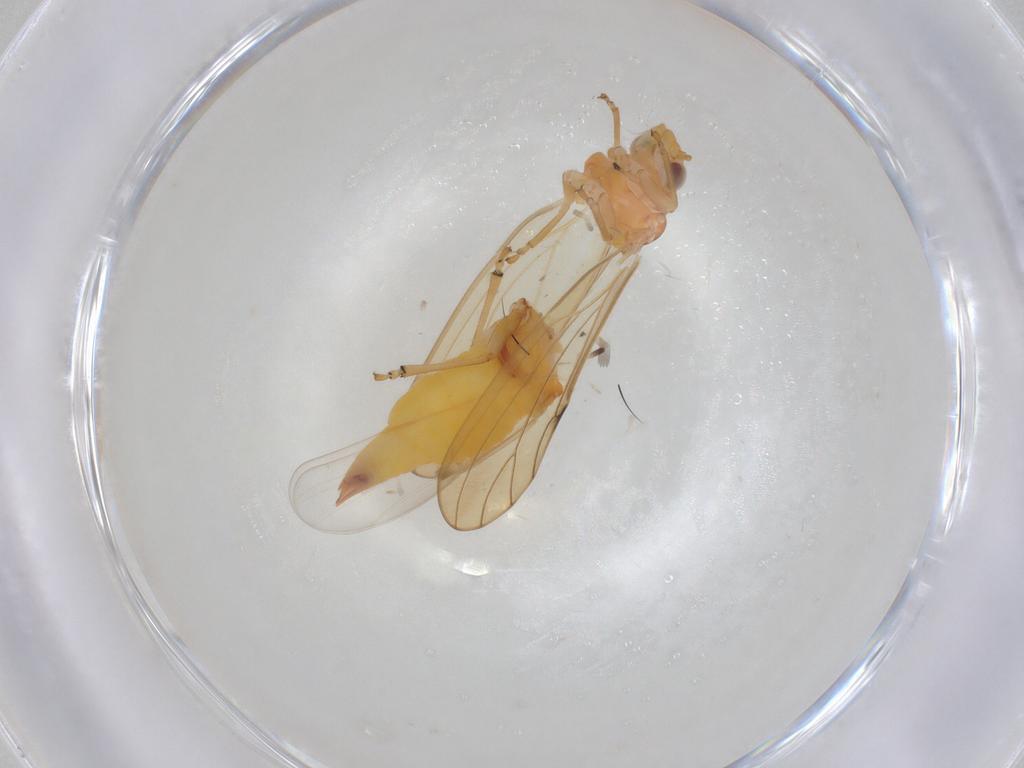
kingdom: Animalia
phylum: Arthropoda
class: Insecta
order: Hemiptera
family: Psylloidea_incertae_sedis
